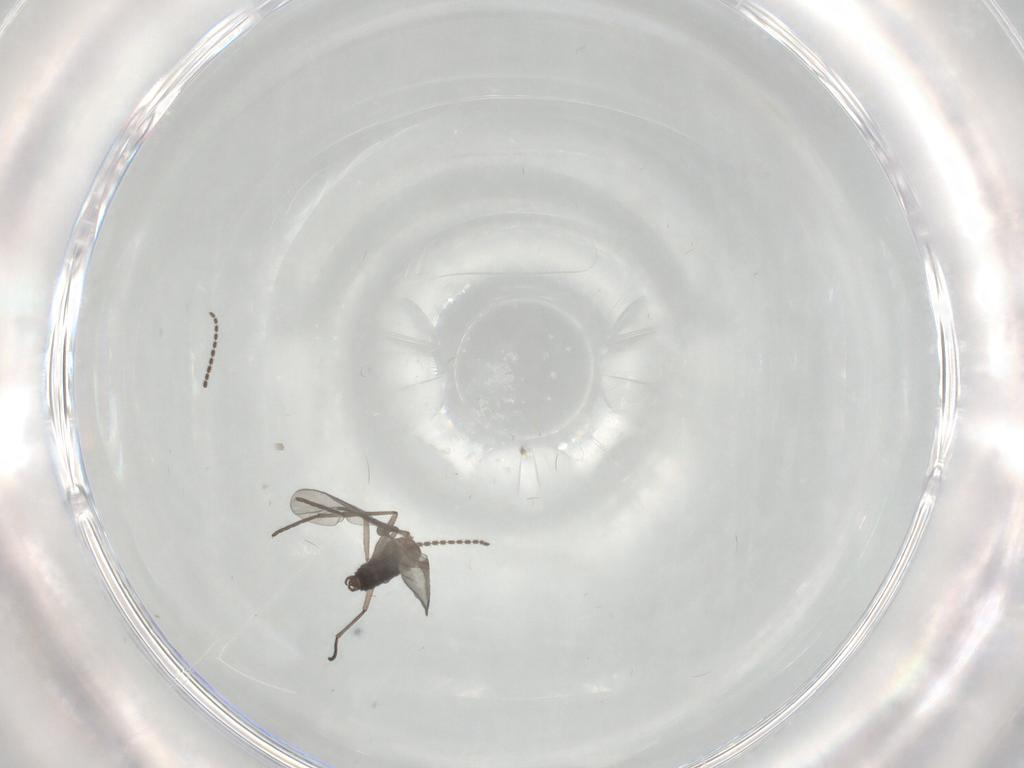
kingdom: Animalia
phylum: Arthropoda
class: Insecta
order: Diptera
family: Sciaridae
